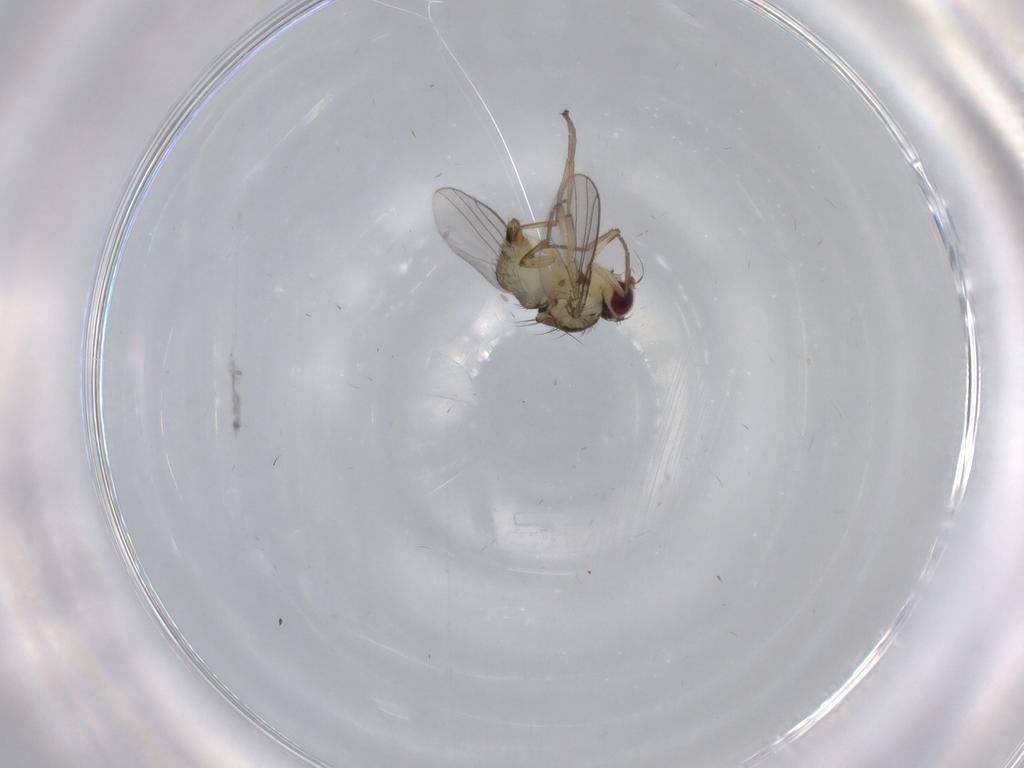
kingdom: Animalia
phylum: Arthropoda
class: Insecta
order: Diptera
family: Agromyzidae
